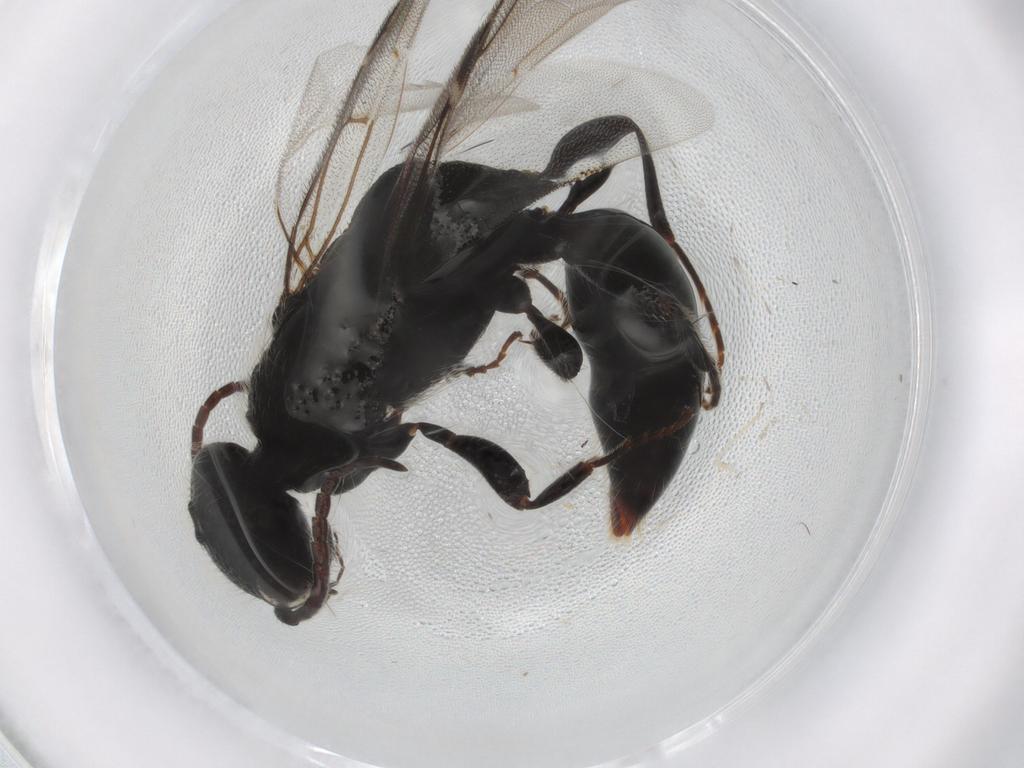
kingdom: Animalia
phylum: Arthropoda
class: Insecta
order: Hymenoptera
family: Bethylidae
